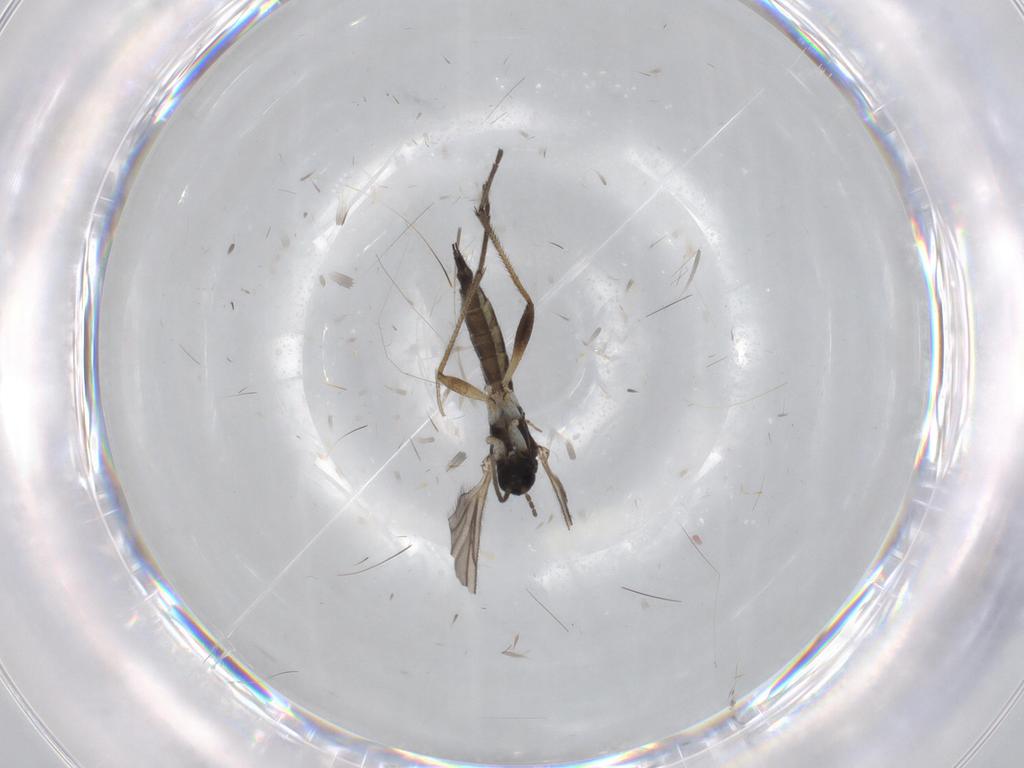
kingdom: Animalia
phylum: Arthropoda
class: Insecta
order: Diptera
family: Sciaridae
